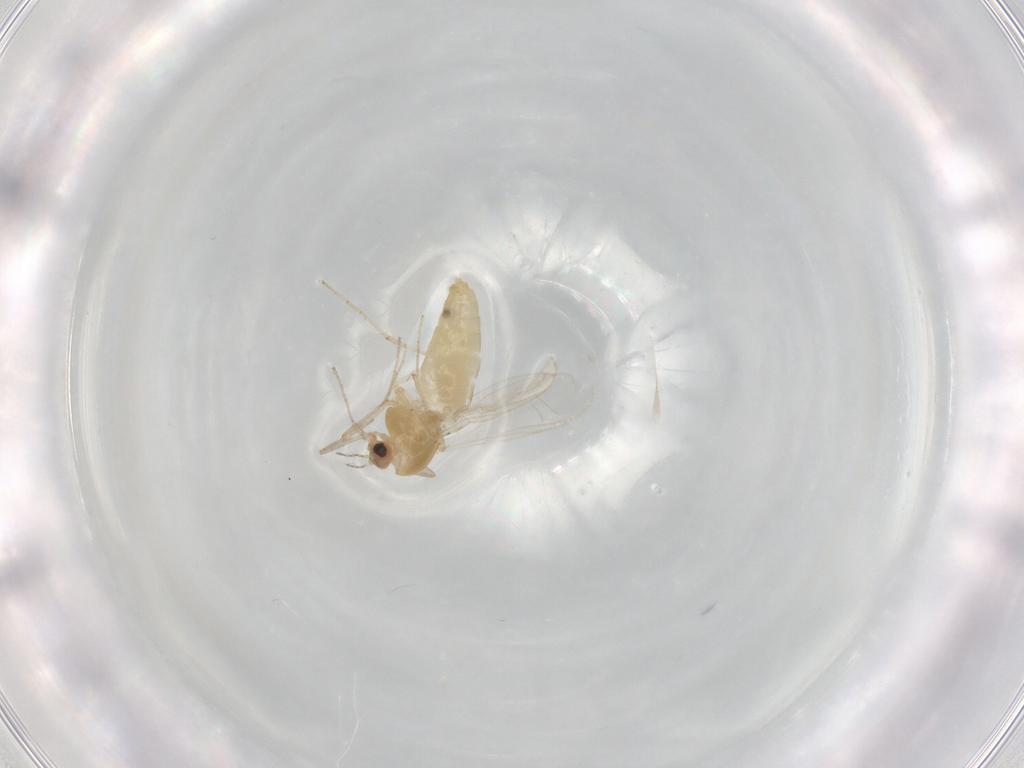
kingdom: Animalia
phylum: Arthropoda
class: Insecta
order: Diptera
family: Chironomidae
